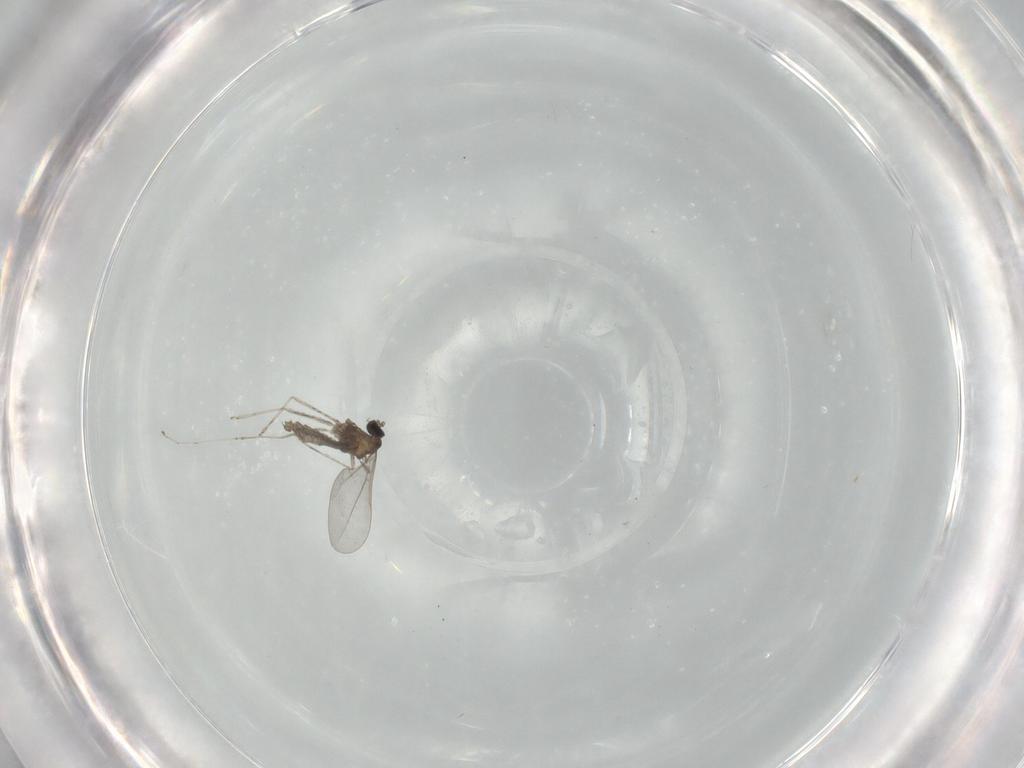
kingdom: Animalia
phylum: Arthropoda
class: Insecta
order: Diptera
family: Cecidomyiidae
